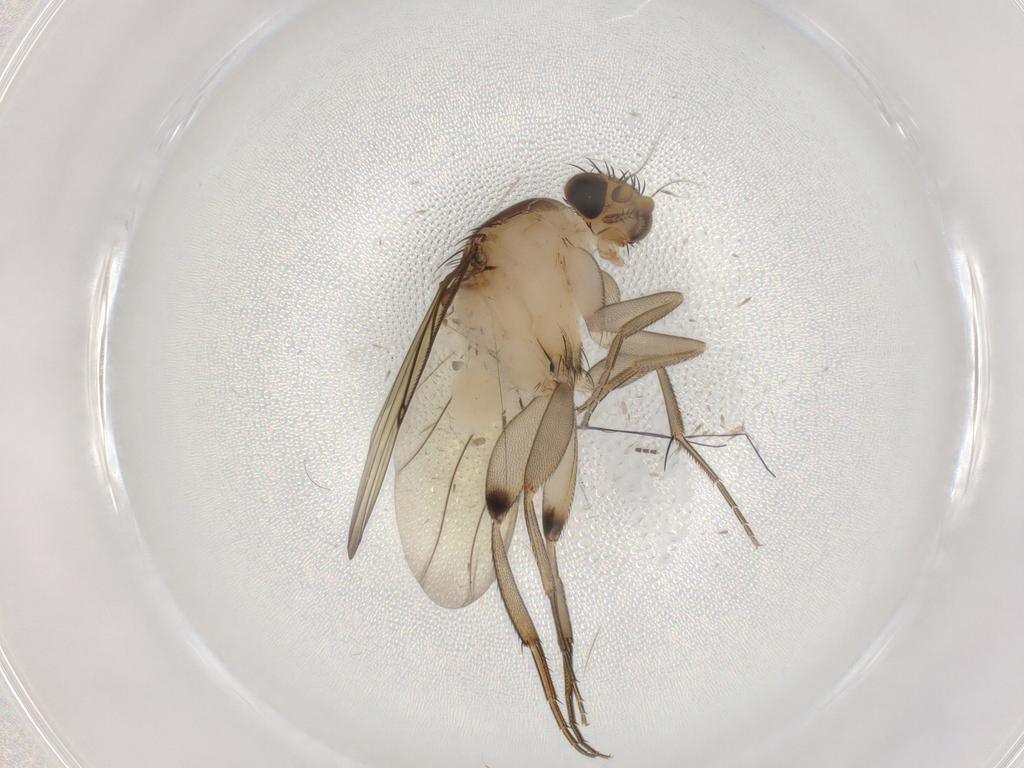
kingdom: Animalia
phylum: Arthropoda
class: Insecta
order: Diptera
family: Phoridae
